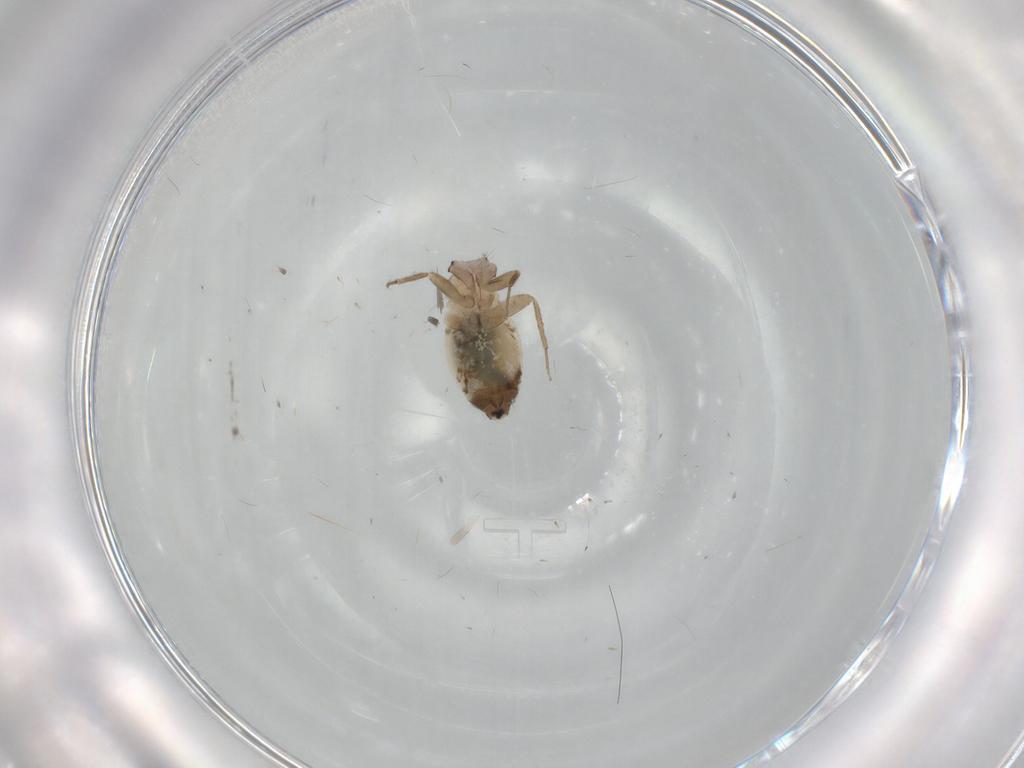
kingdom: Animalia
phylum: Arthropoda
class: Insecta
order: Psocodea
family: Lepidopsocidae
